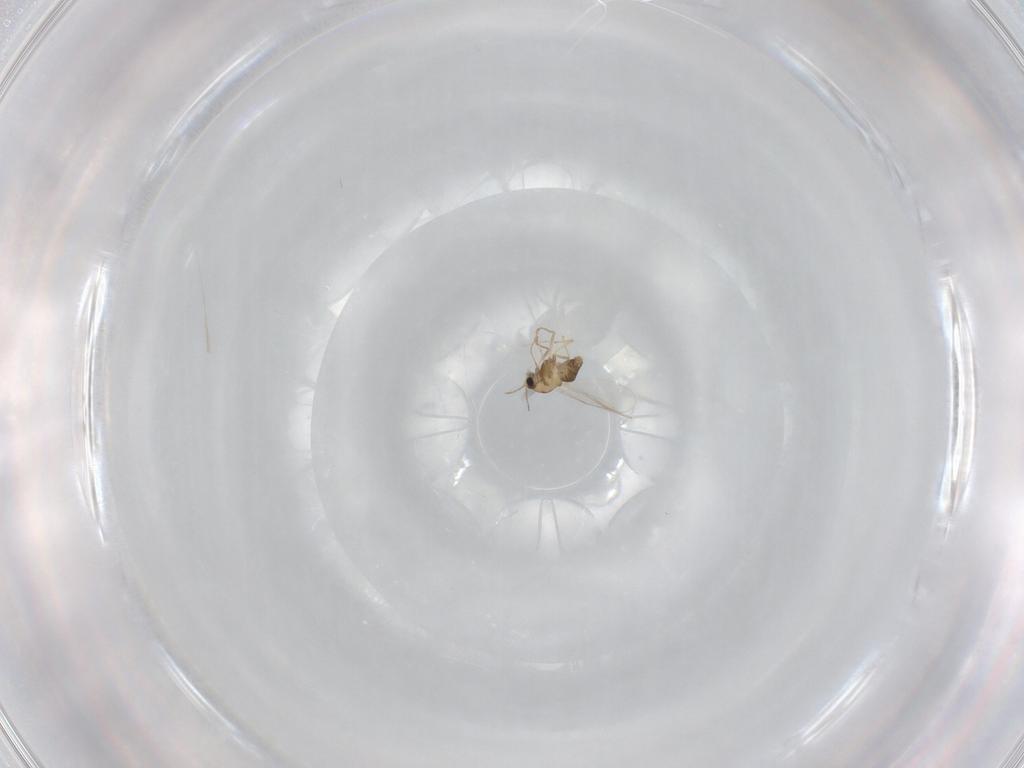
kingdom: Animalia
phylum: Arthropoda
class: Insecta
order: Diptera
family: Chironomidae
